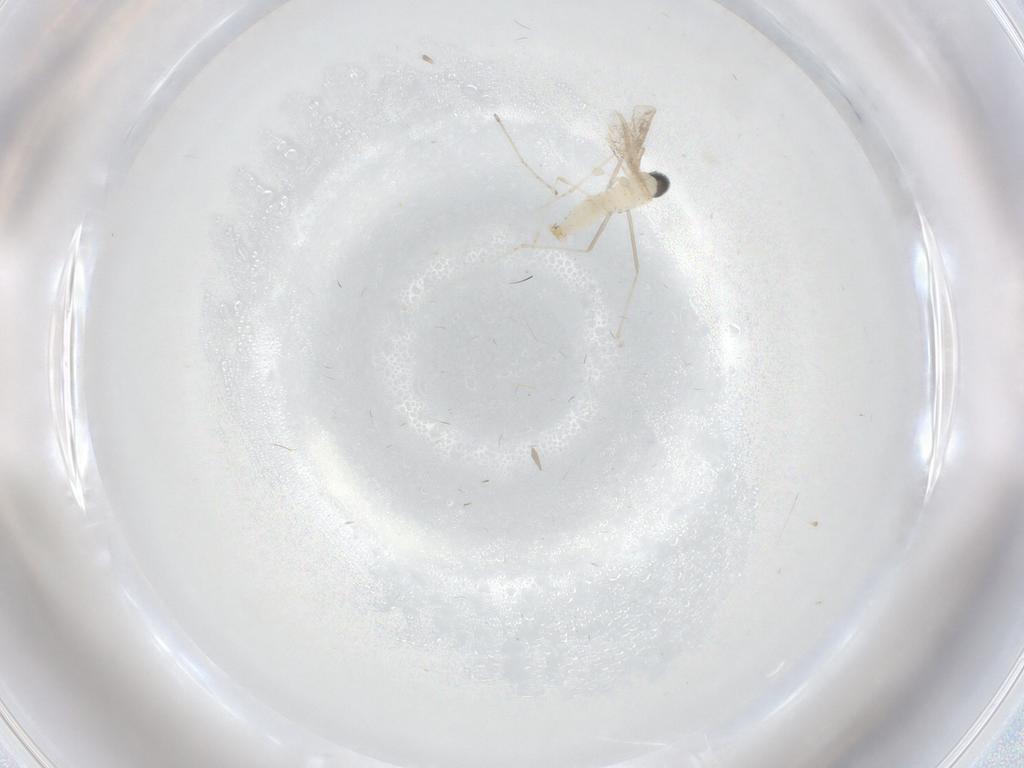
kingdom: Animalia
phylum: Arthropoda
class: Insecta
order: Diptera
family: Cecidomyiidae
